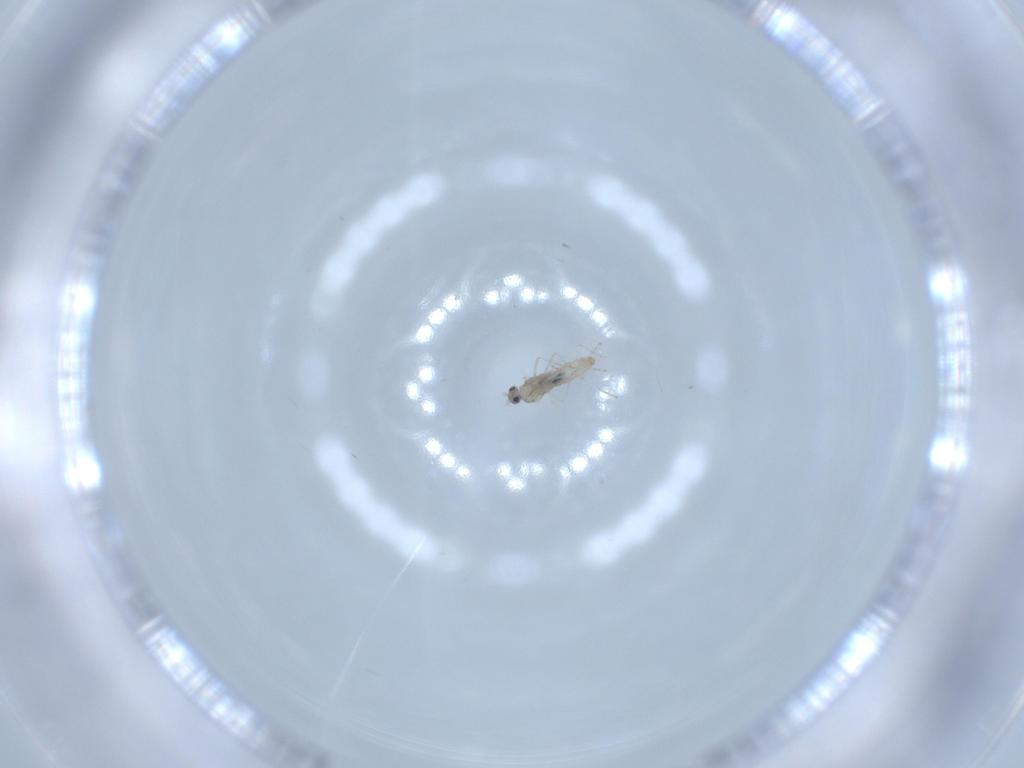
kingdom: Animalia
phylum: Arthropoda
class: Insecta
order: Diptera
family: Cecidomyiidae
